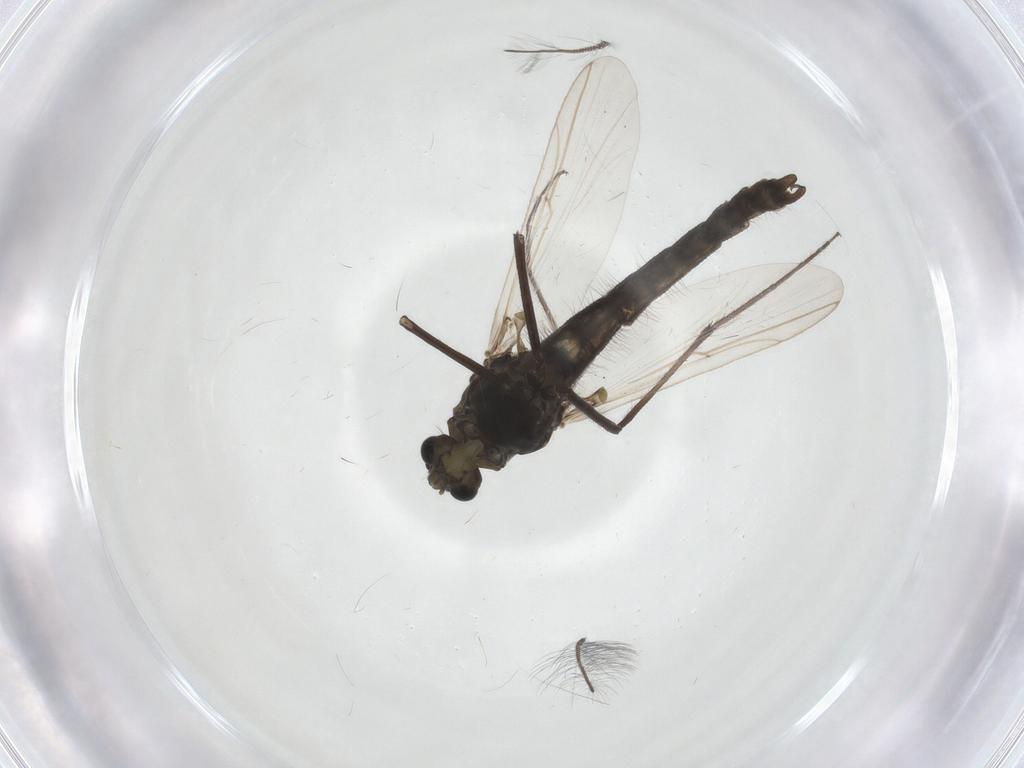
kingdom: Animalia
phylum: Arthropoda
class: Insecta
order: Diptera
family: Chironomidae
